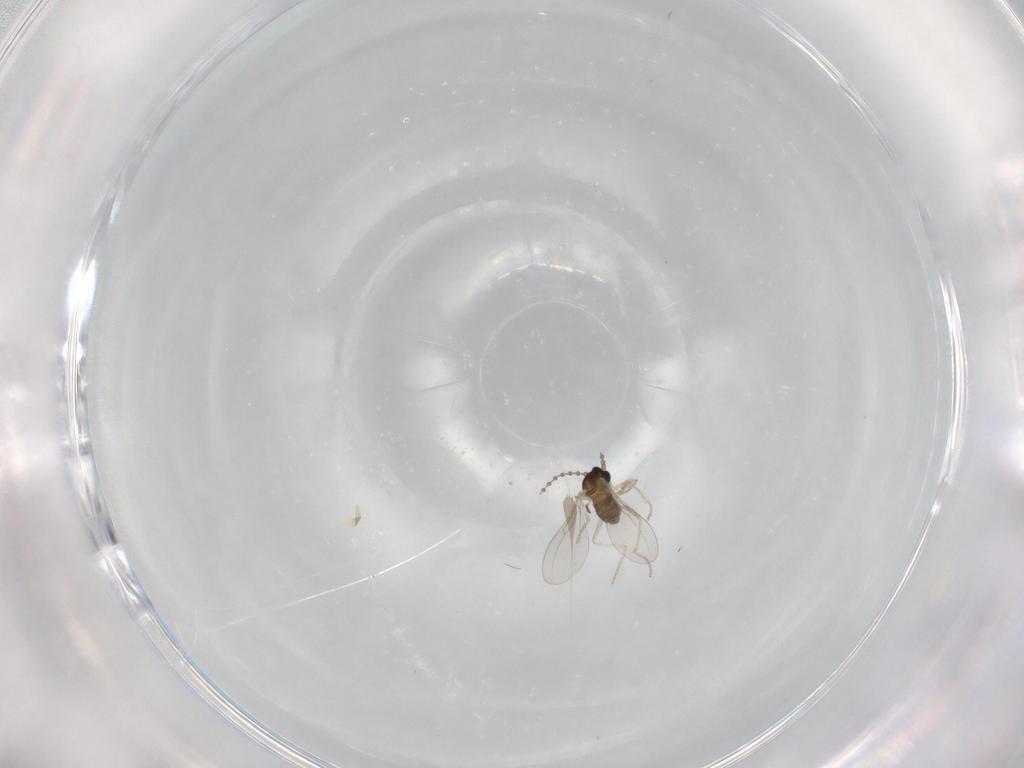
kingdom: Animalia
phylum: Arthropoda
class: Insecta
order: Diptera
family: Cecidomyiidae
